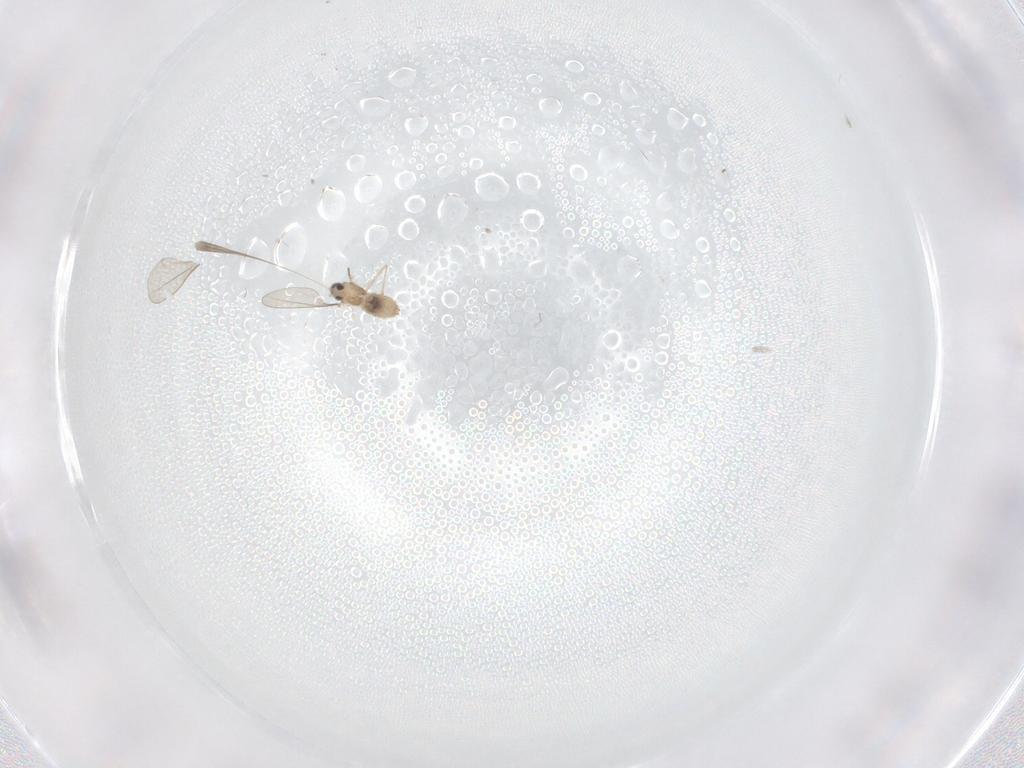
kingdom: Animalia
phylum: Arthropoda
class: Insecta
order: Diptera
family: Cecidomyiidae
